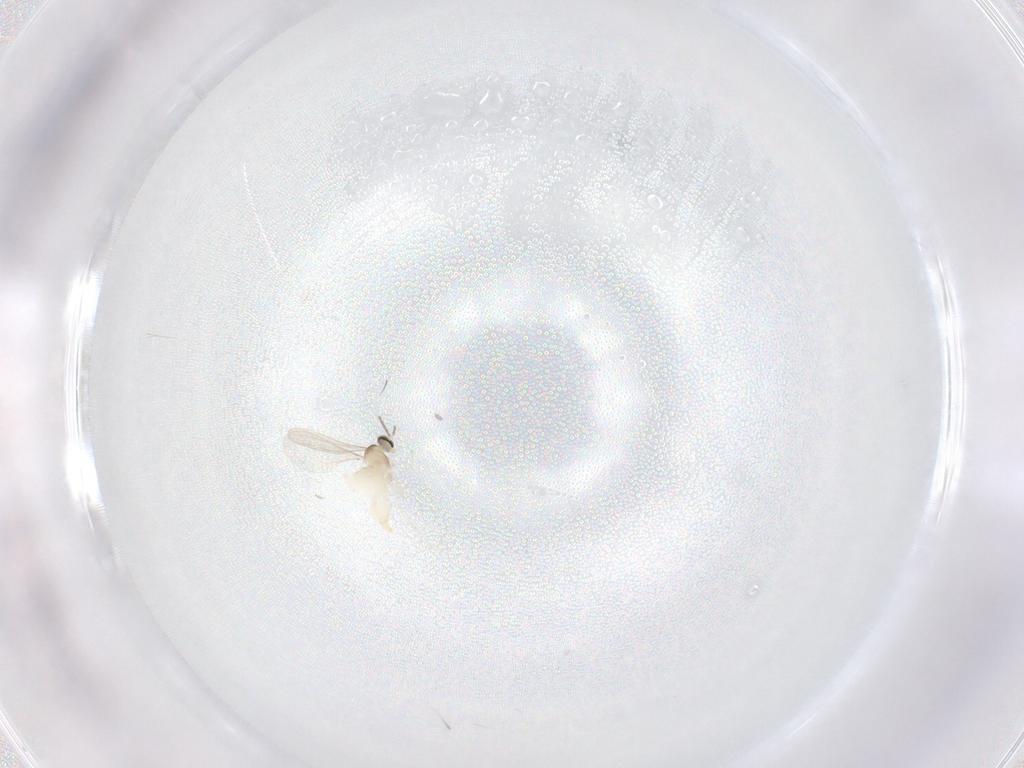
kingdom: Animalia
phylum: Arthropoda
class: Insecta
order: Diptera
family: Cecidomyiidae
